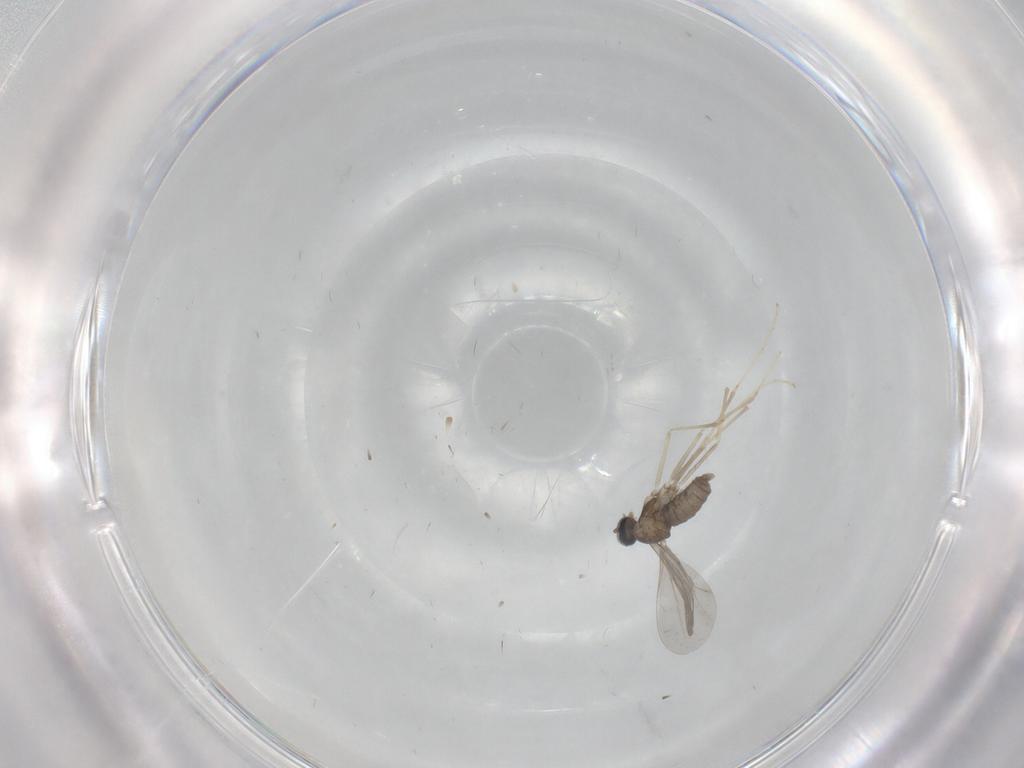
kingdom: Animalia
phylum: Arthropoda
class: Insecta
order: Diptera
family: Cecidomyiidae
